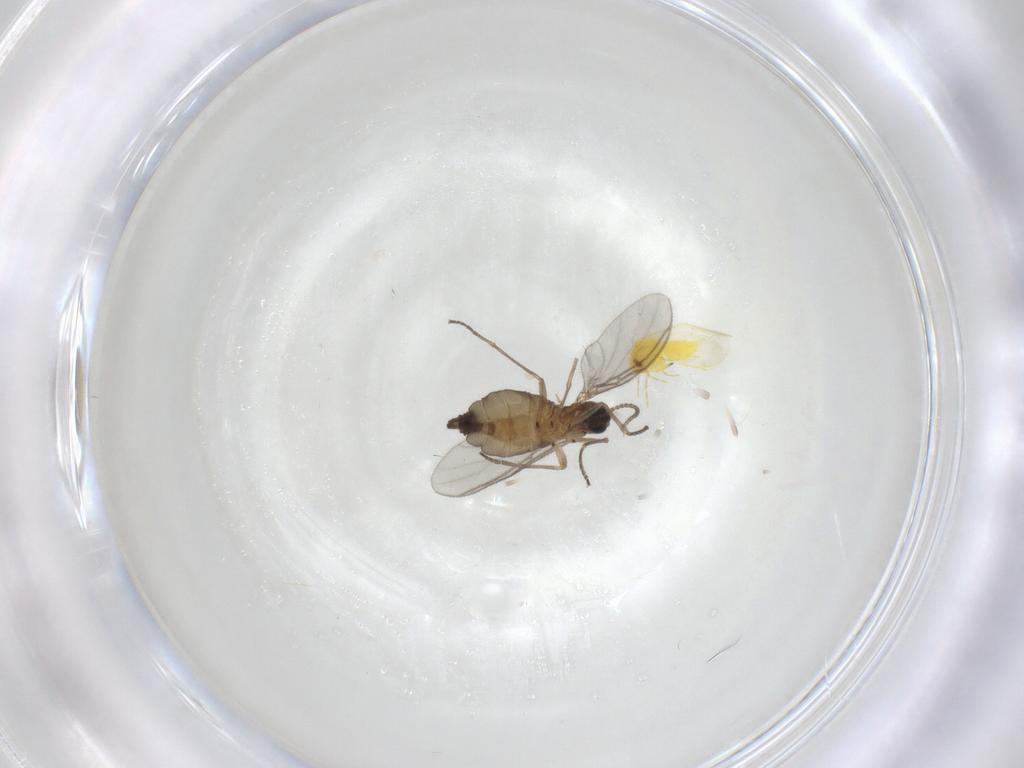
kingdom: Animalia
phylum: Arthropoda
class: Insecta
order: Diptera
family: Sciaridae
